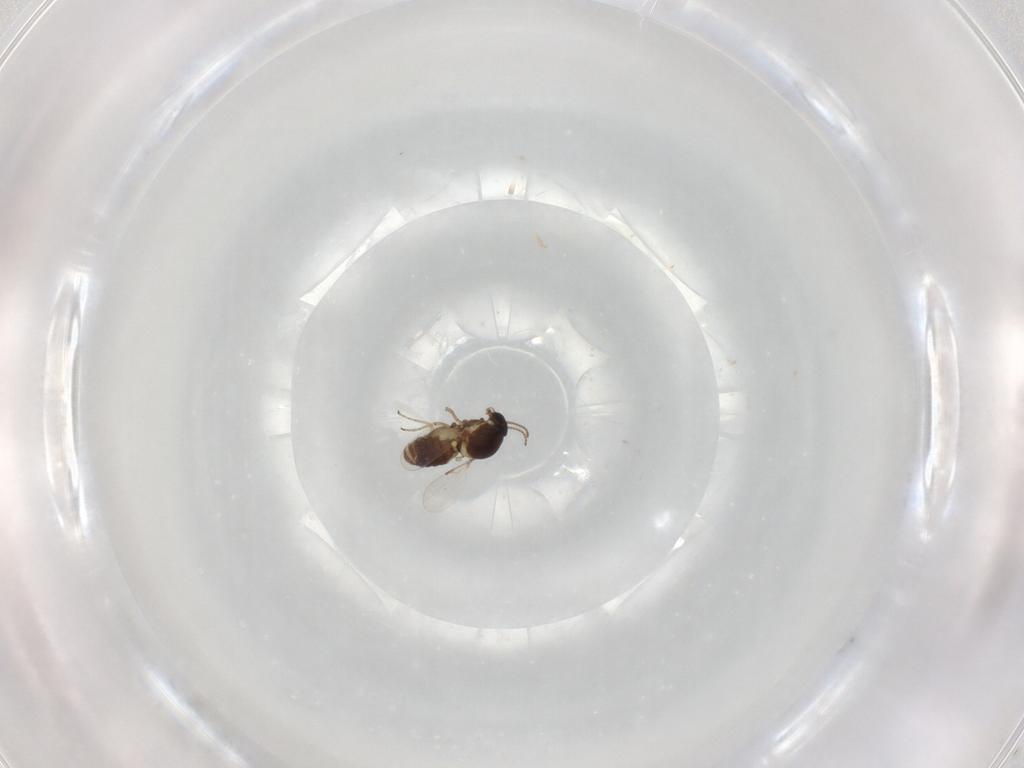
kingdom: Animalia
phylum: Arthropoda
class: Insecta
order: Diptera
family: Ceratopogonidae
